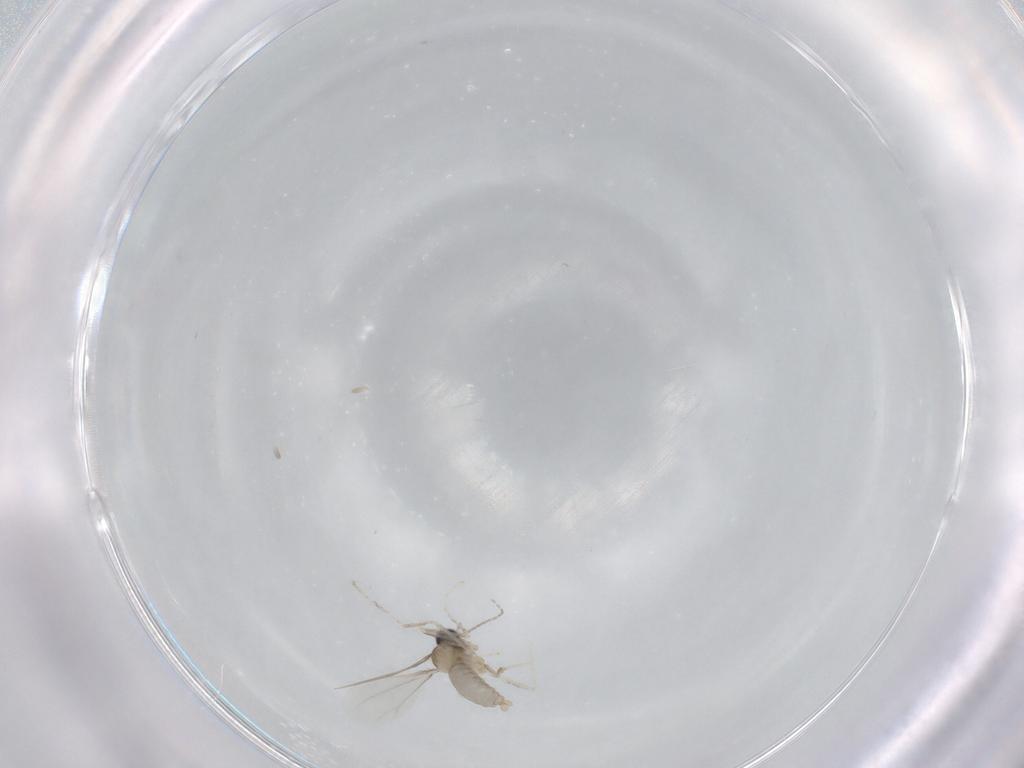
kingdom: Animalia
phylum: Arthropoda
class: Insecta
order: Diptera
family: Cecidomyiidae
